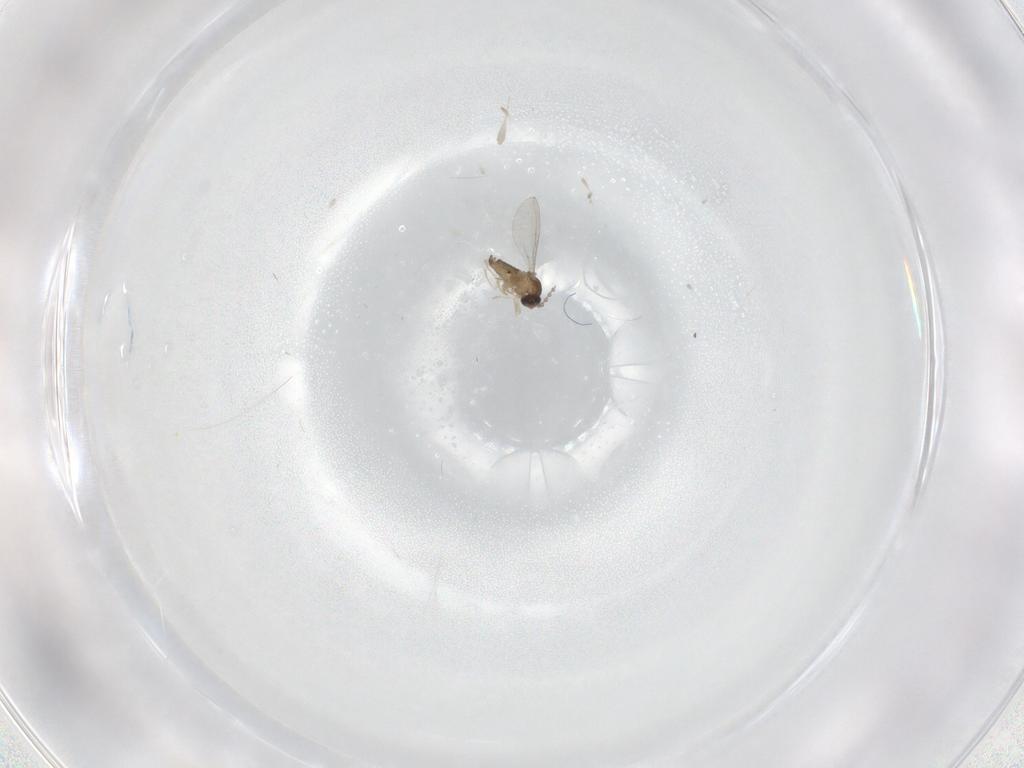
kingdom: Animalia
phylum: Arthropoda
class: Insecta
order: Diptera
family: Cecidomyiidae
